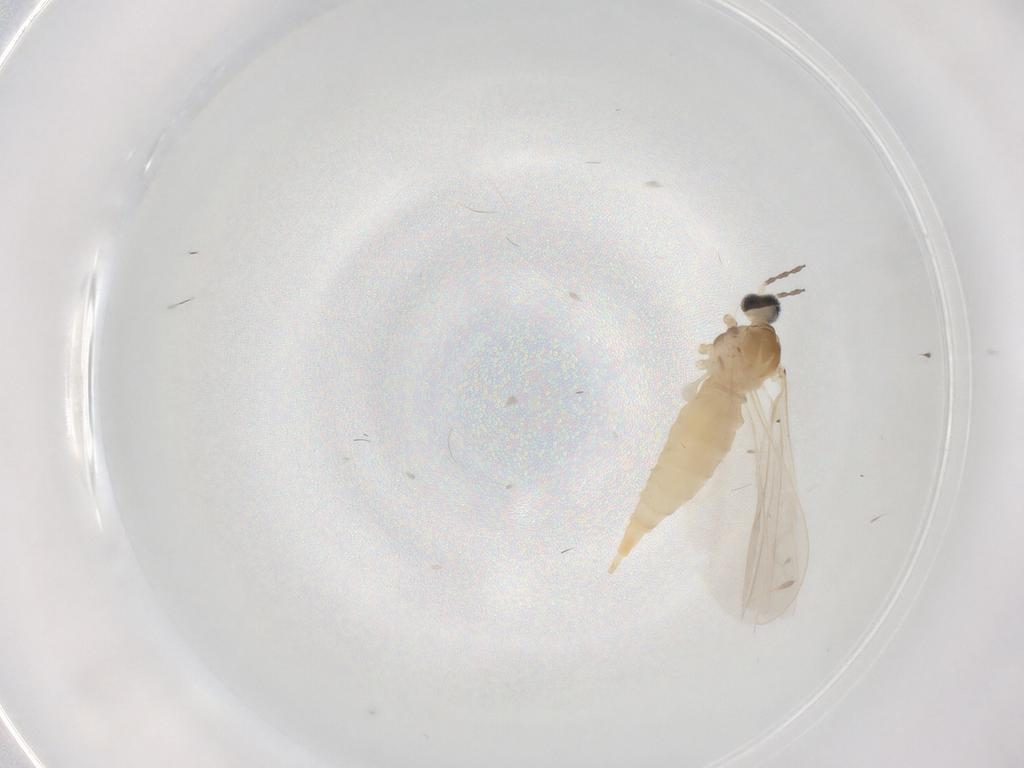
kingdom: Animalia
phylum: Arthropoda
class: Insecta
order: Diptera
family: Cecidomyiidae
